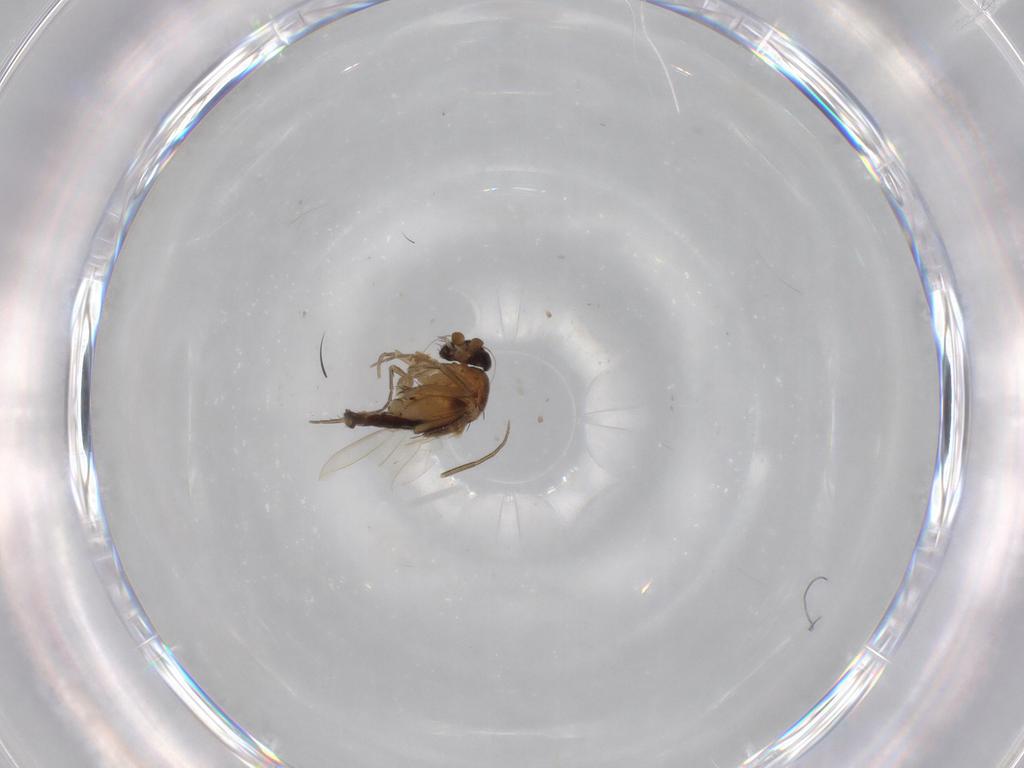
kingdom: Animalia
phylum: Arthropoda
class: Insecta
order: Diptera
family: Phoridae
